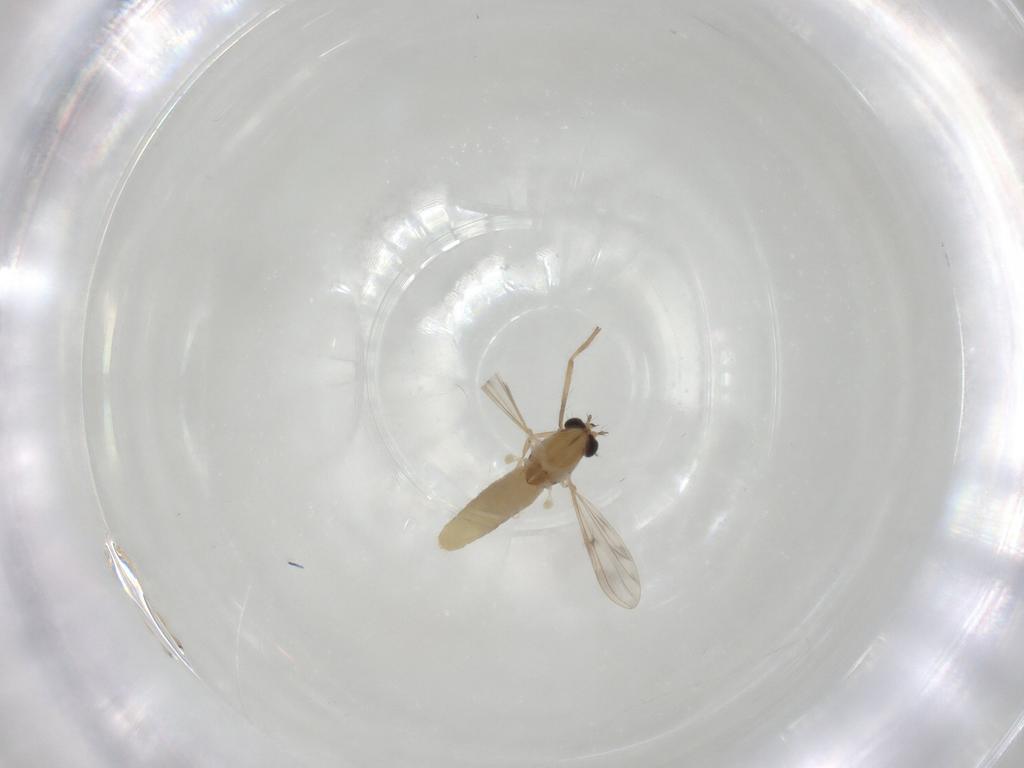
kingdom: Animalia
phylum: Arthropoda
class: Insecta
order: Diptera
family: Chironomidae
